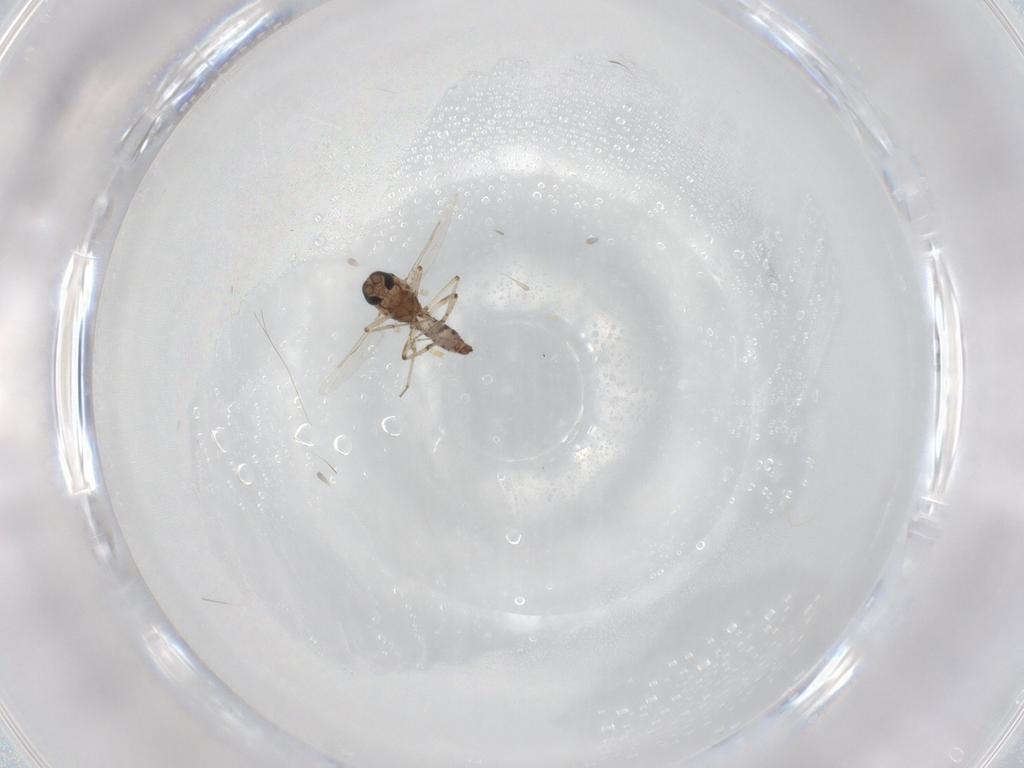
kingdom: Animalia
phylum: Arthropoda
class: Insecta
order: Diptera
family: Ceratopogonidae
